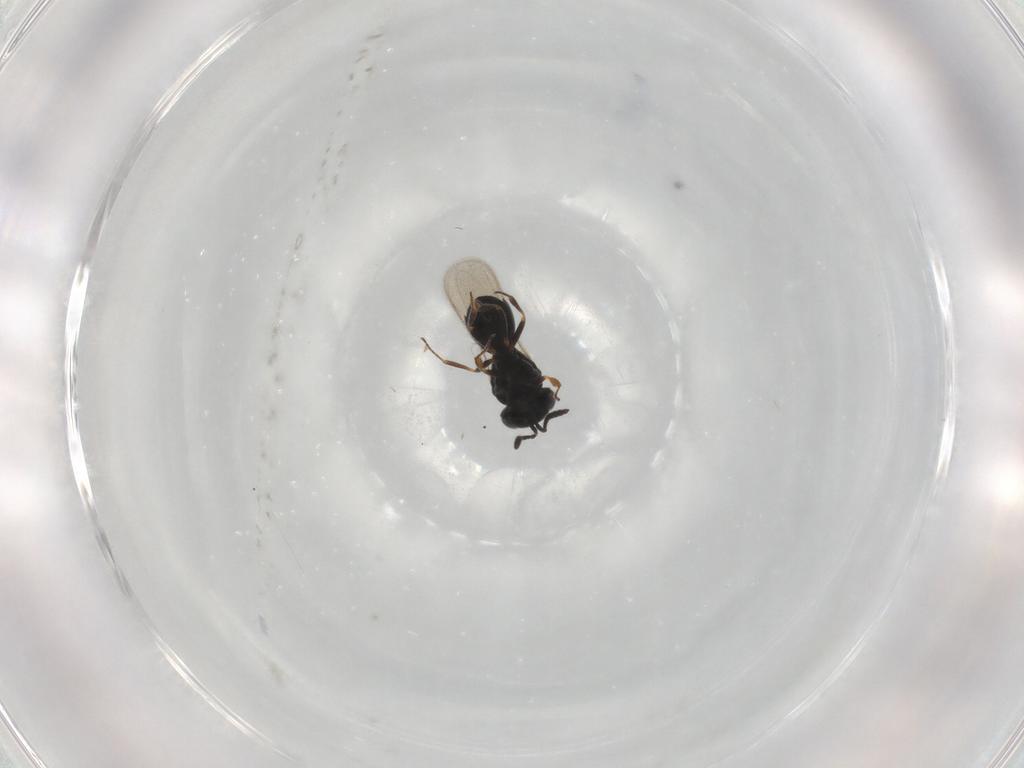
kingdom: Animalia
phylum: Arthropoda
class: Insecta
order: Hymenoptera
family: Scelionidae
